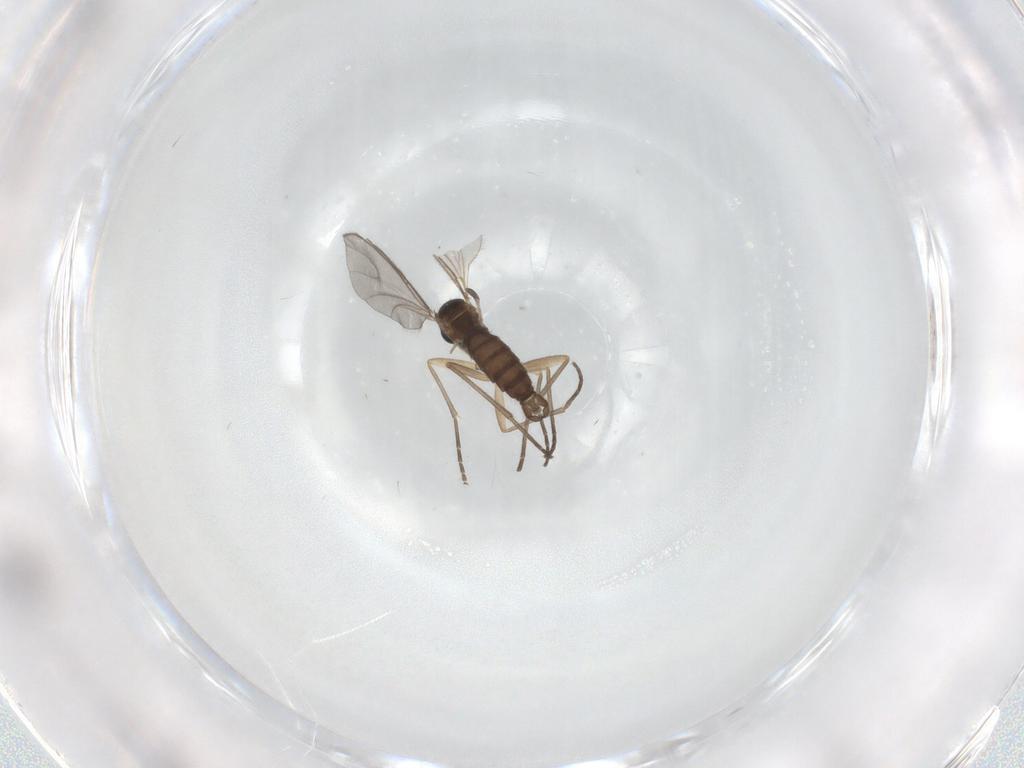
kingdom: Animalia
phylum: Arthropoda
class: Insecta
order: Diptera
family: Sciaridae
